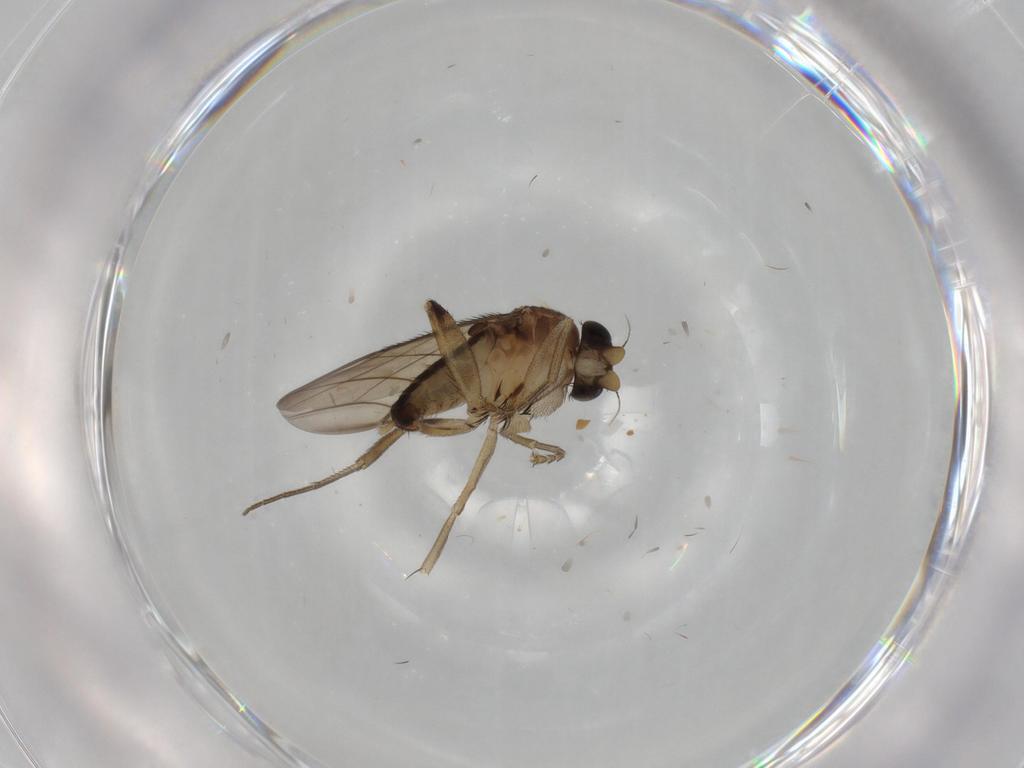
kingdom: Animalia
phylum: Arthropoda
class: Insecta
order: Diptera
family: Phoridae
